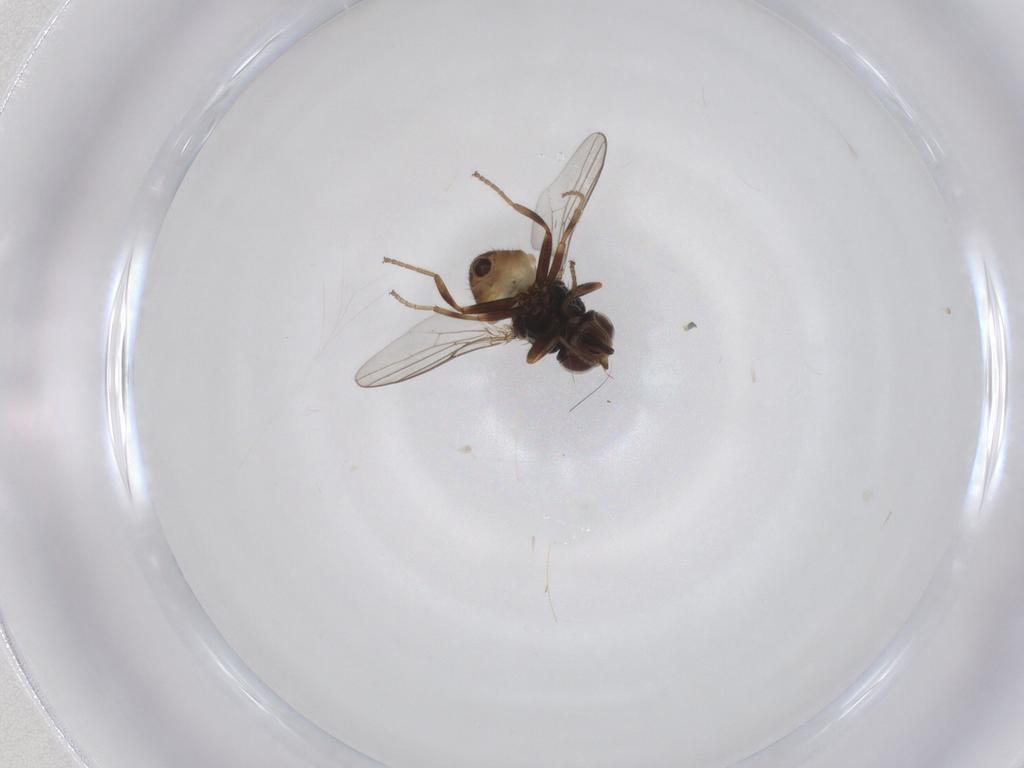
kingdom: Animalia
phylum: Arthropoda
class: Insecta
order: Diptera
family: Chloropidae
